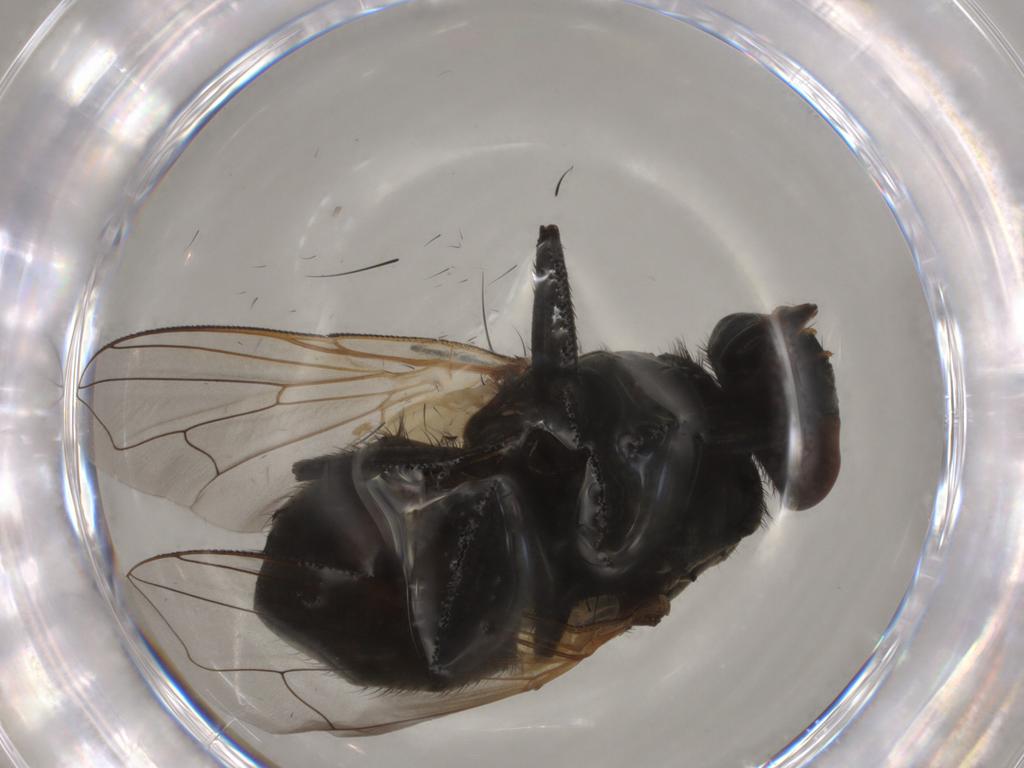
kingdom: Animalia
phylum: Arthropoda
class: Insecta
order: Diptera
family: Muscidae
